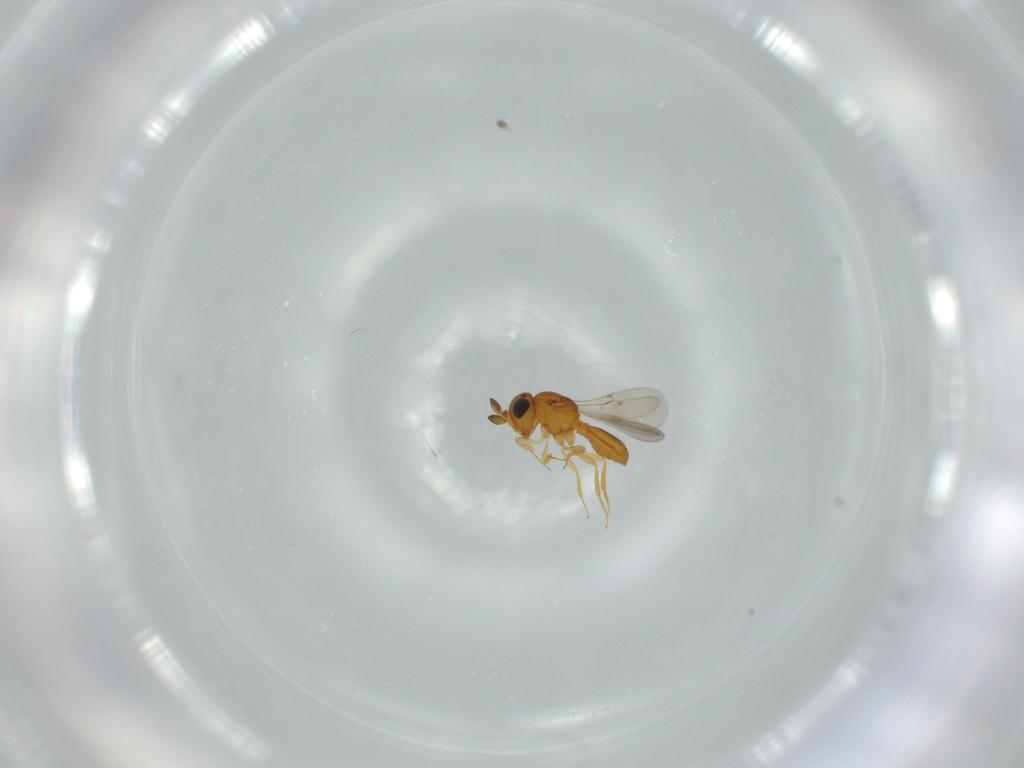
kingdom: Animalia
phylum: Arthropoda
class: Insecta
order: Hymenoptera
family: Scelionidae
